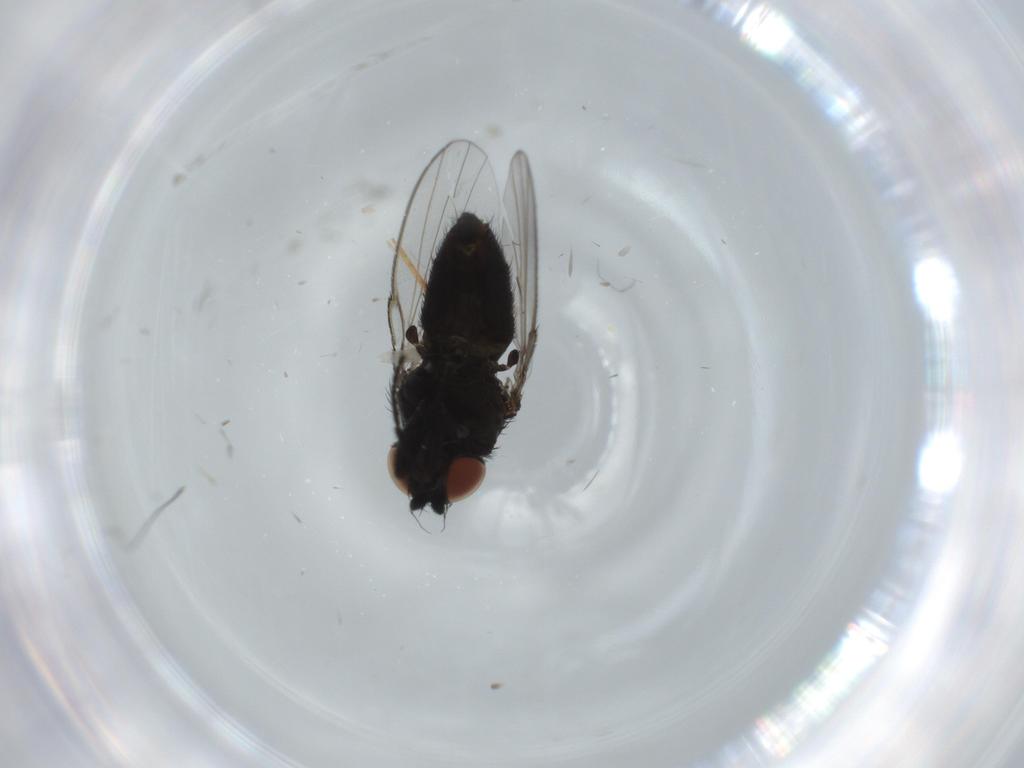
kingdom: Animalia
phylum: Arthropoda
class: Insecta
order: Diptera
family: Milichiidae
